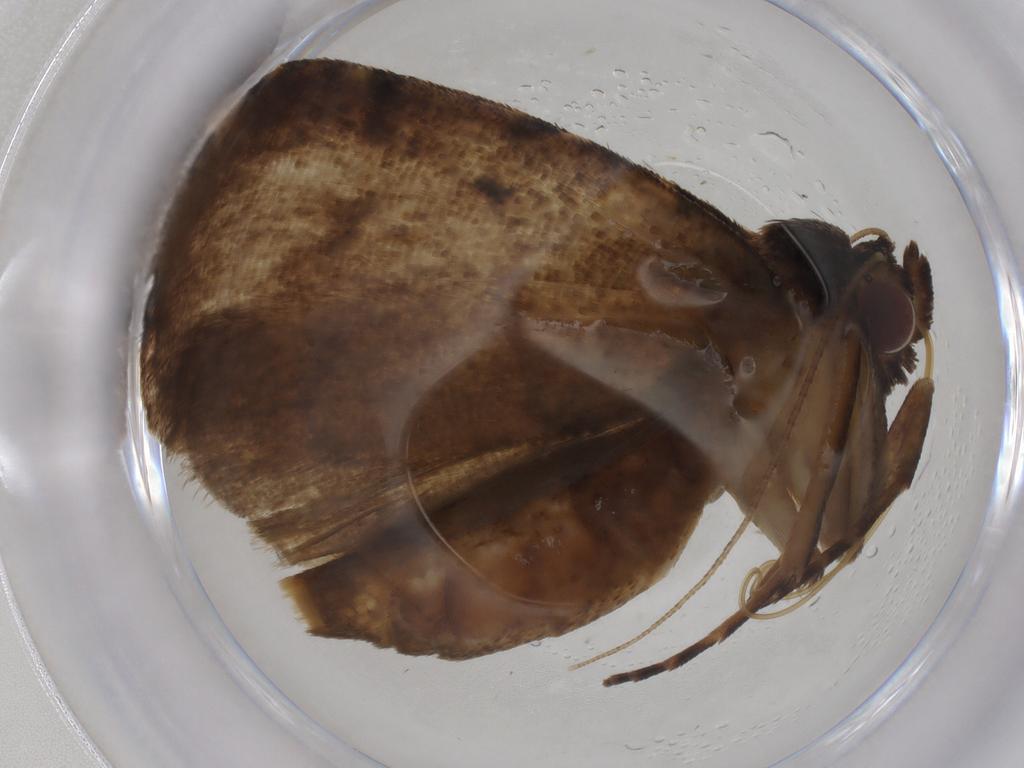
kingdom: Animalia
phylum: Arthropoda
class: Insecta
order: Lepidoptera
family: Erebidae
